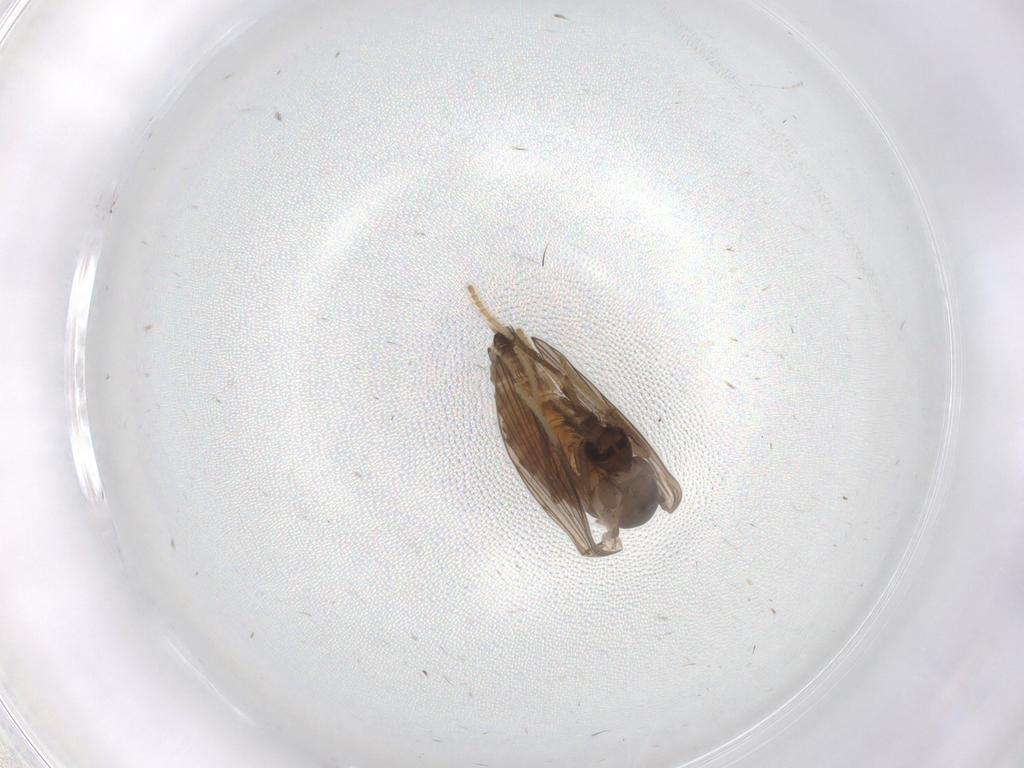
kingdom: Animalia
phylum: Arthropoda
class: Insecta
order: Diptera
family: Psychodidae
